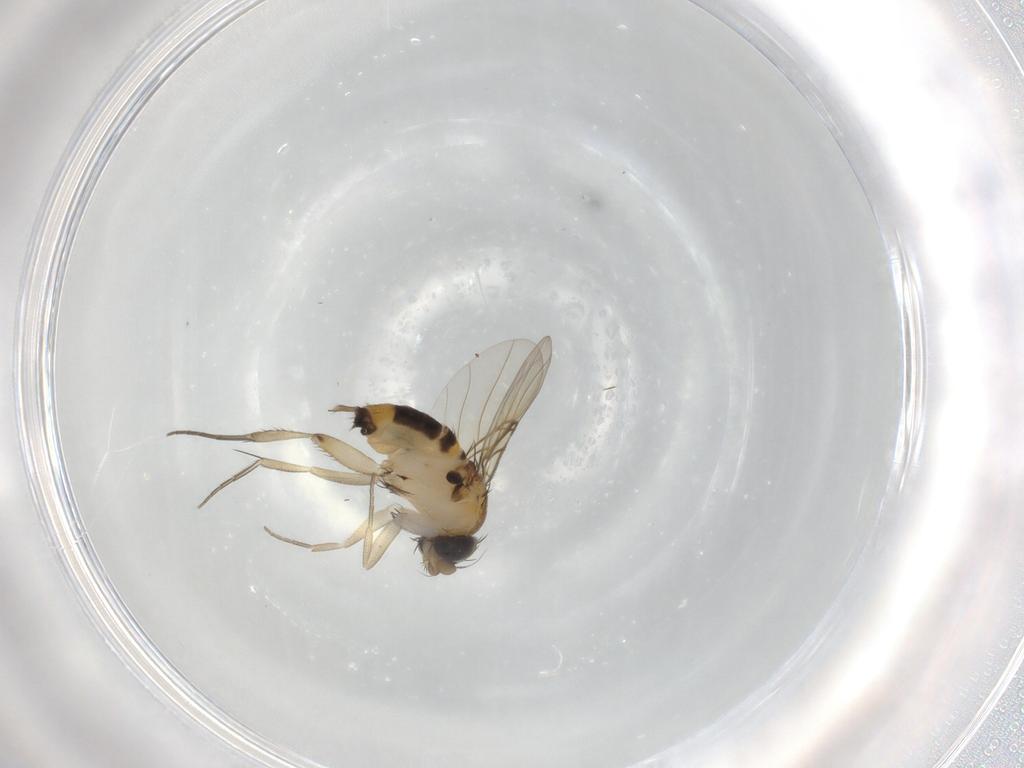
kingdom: Animalia
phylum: Arthropoda
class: Insecta
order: Diptera
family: Phoridae
